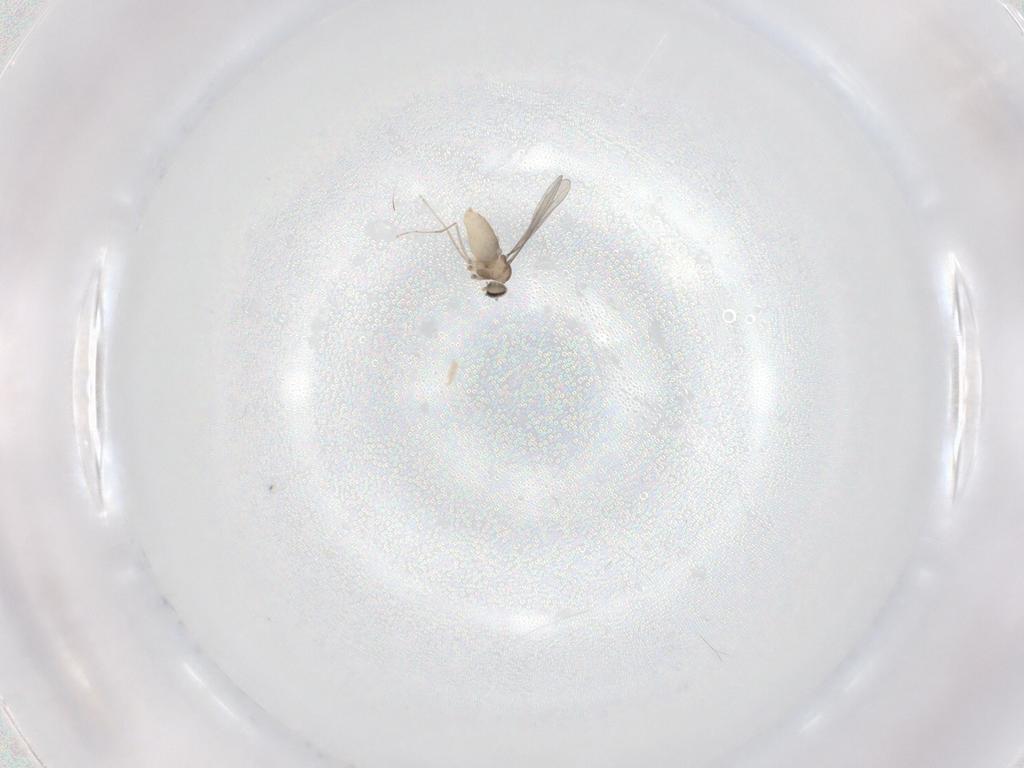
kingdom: Animalia
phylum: Arthropoda
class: Insecta
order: Diptera
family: Cecidomyiidae
